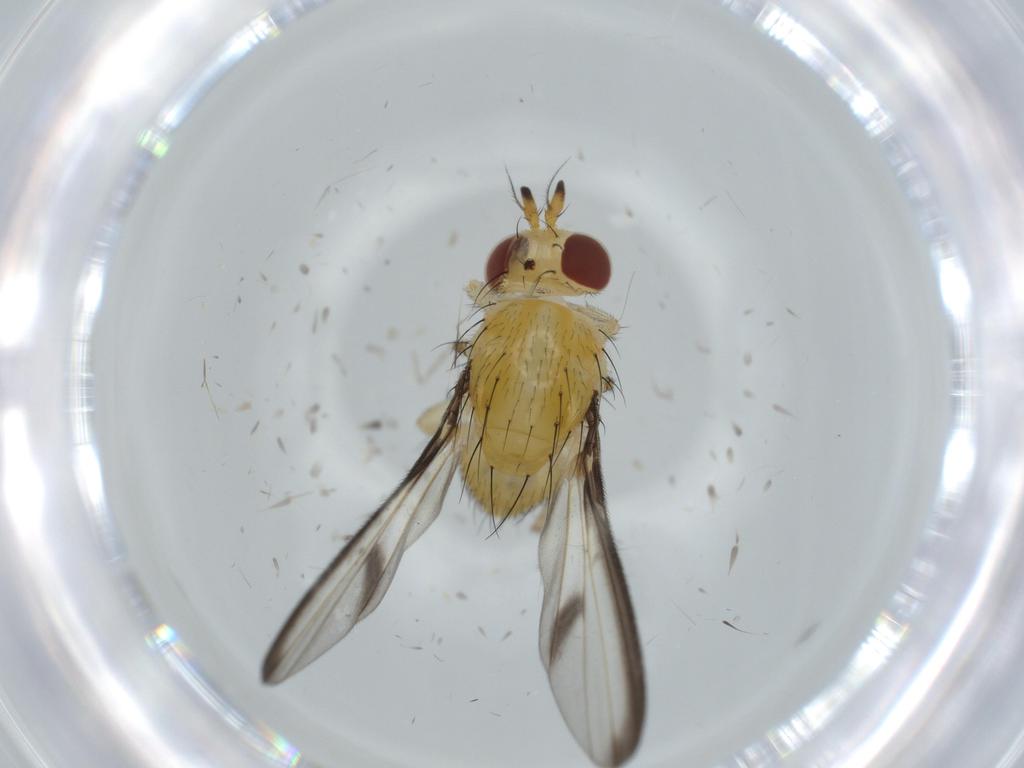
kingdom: Animalia
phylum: Arthropoda
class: Insecta
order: Diptera
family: Lauxaniidae
